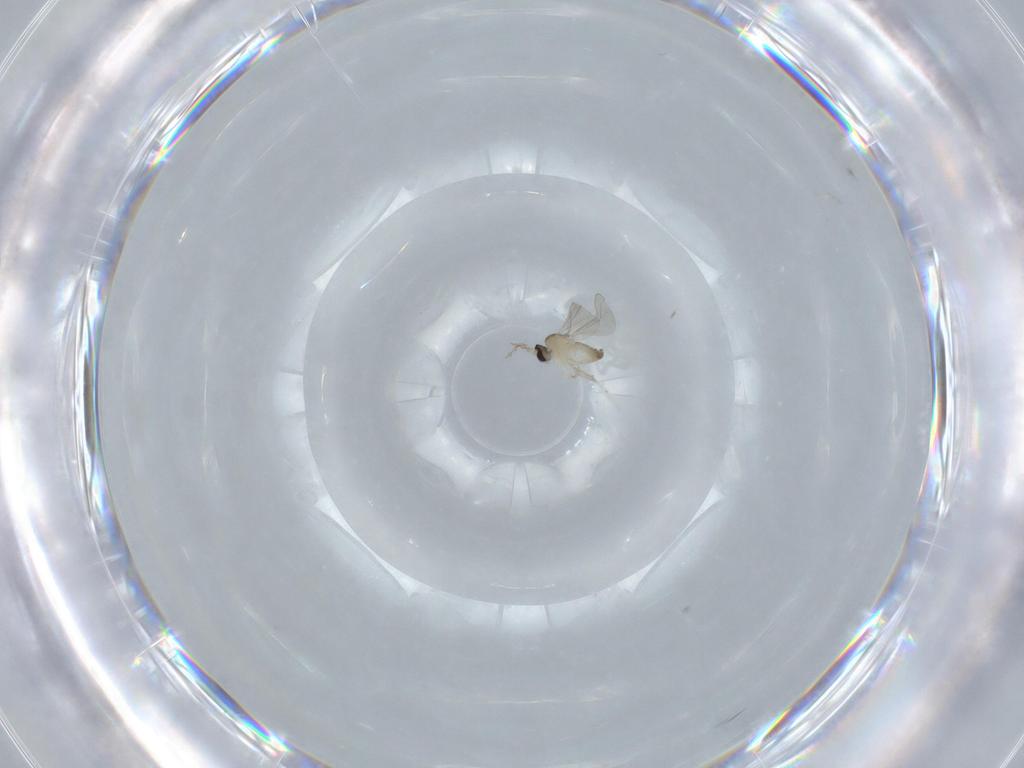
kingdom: Animalia
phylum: Arthropoda
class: Insecta
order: Diptera
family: Cecidomyiidae
